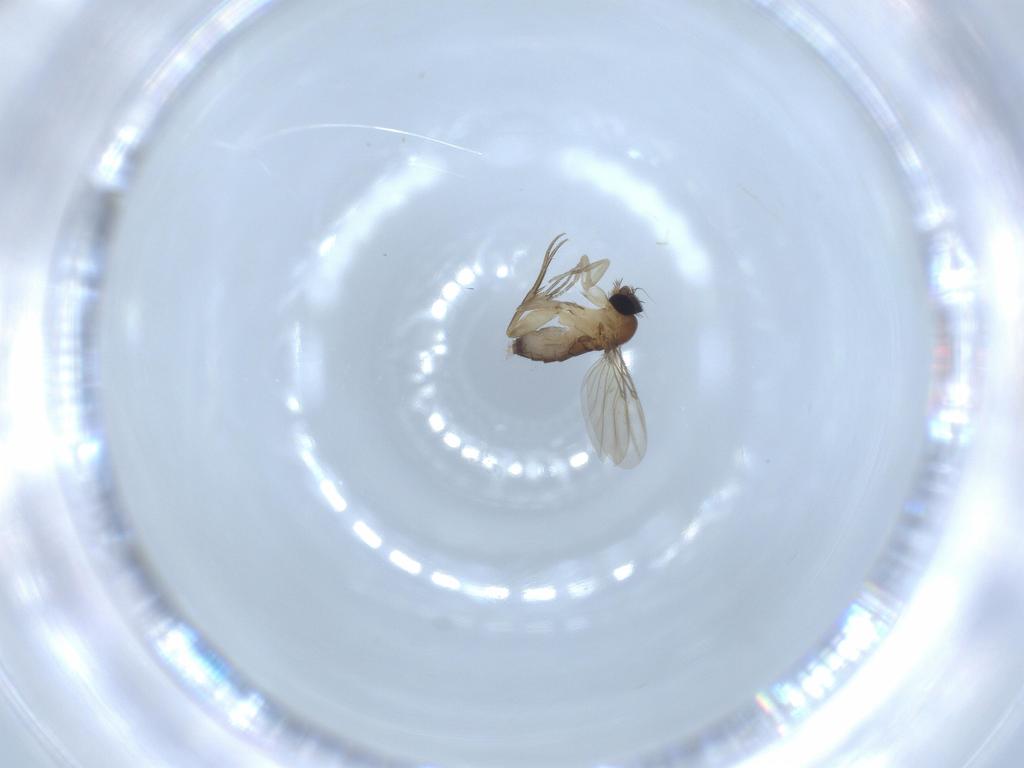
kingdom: Animalia
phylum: Arthropoda
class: Insecta
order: Diptera
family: Phoridae
